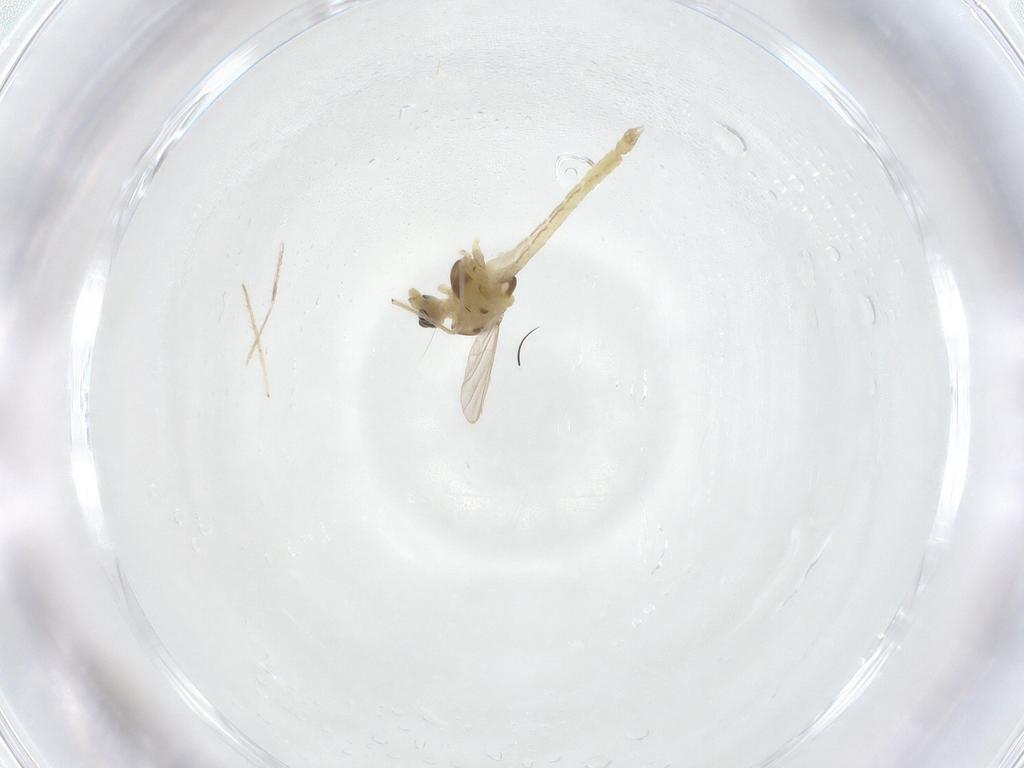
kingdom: Animalia
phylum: Arthropoda
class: Insecta
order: Diptera
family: Chironomidae
